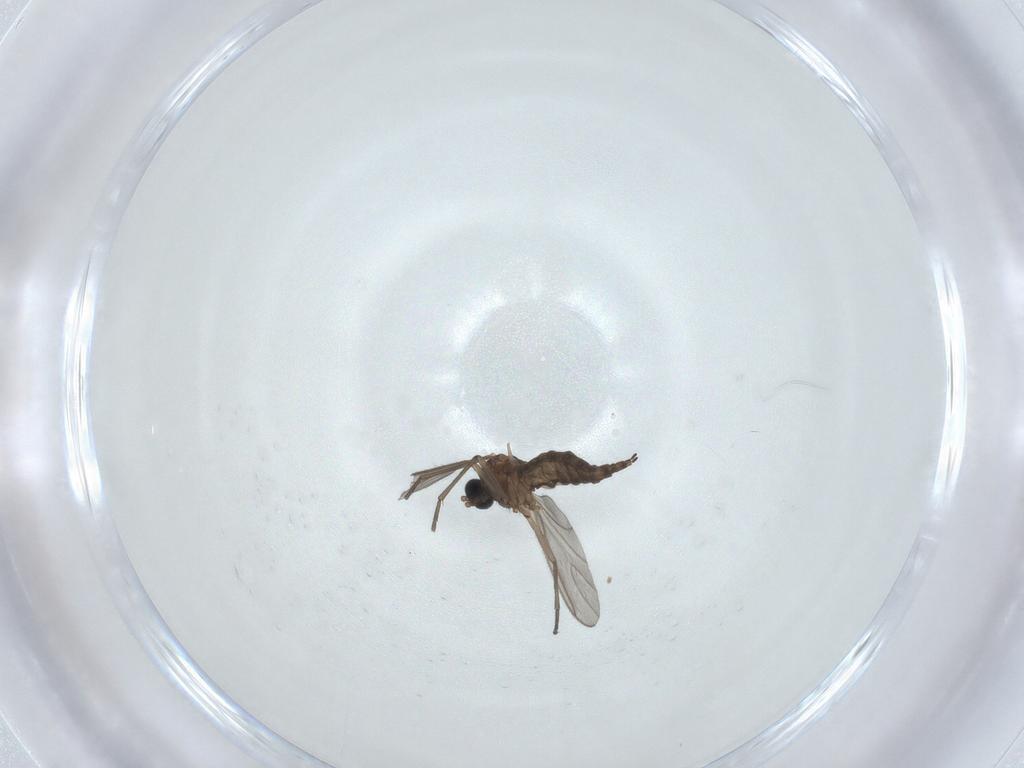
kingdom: Animalia
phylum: Arthropoda
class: Insecta
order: Diptera
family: Cecidomyiidae
